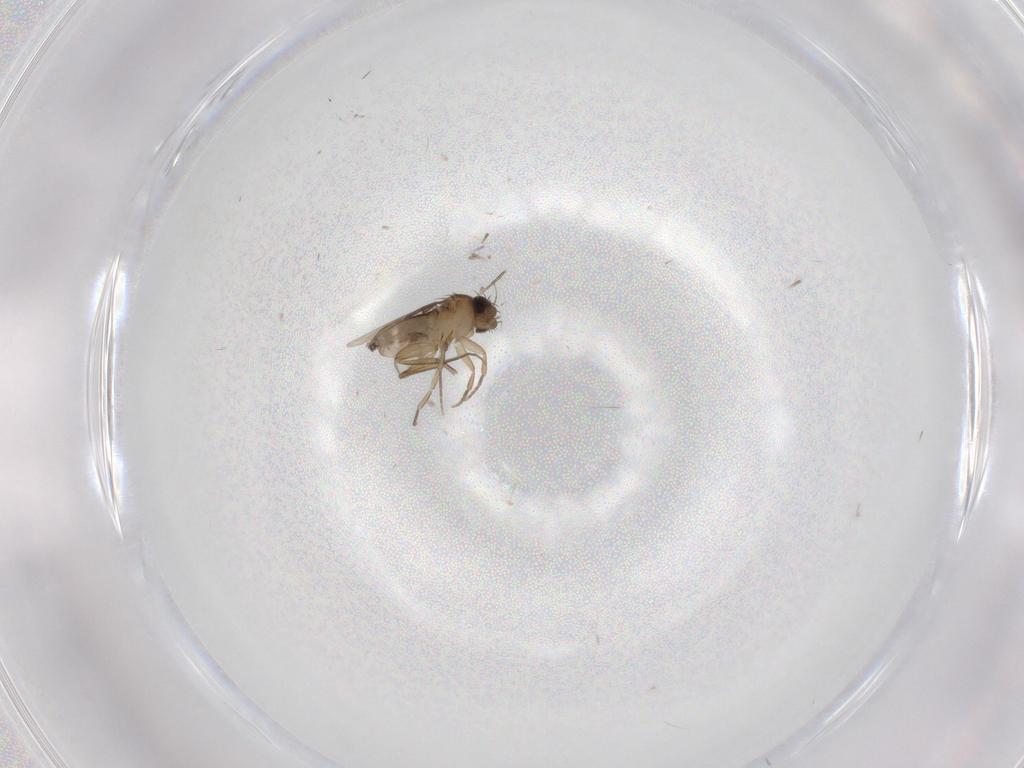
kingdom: Animalia
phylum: Arthropoda
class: Insecta
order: Diptera
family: Phoridae
